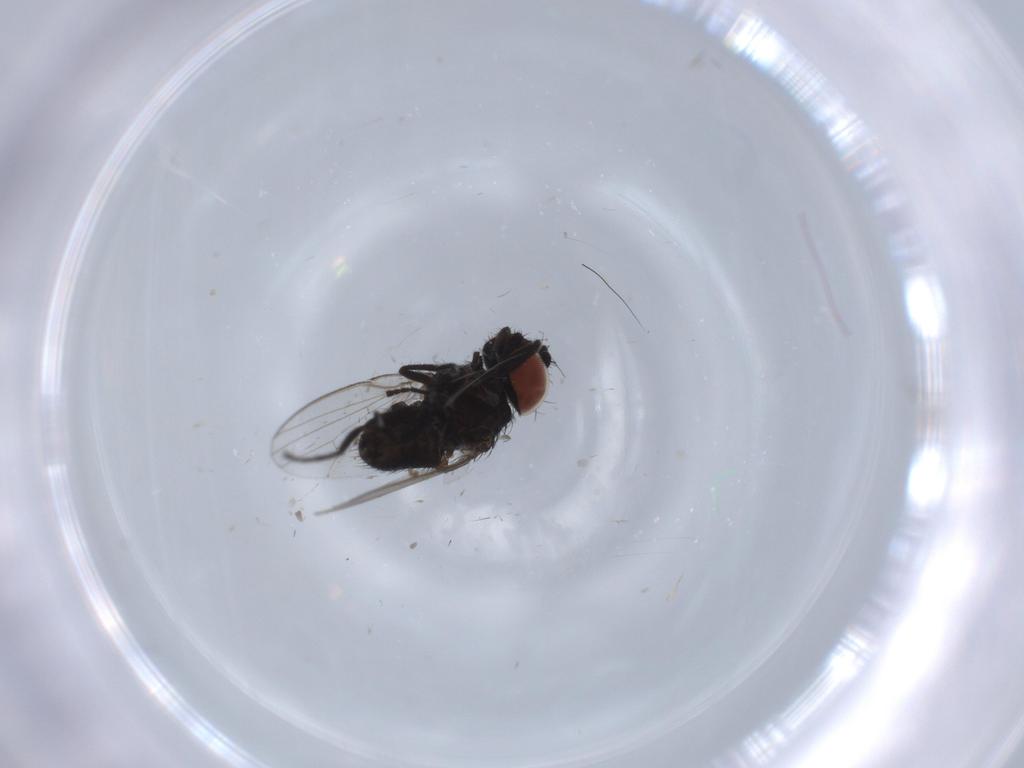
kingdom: Animalia
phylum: Arthropoda
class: Insecta
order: Diptera
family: Milichiidae
